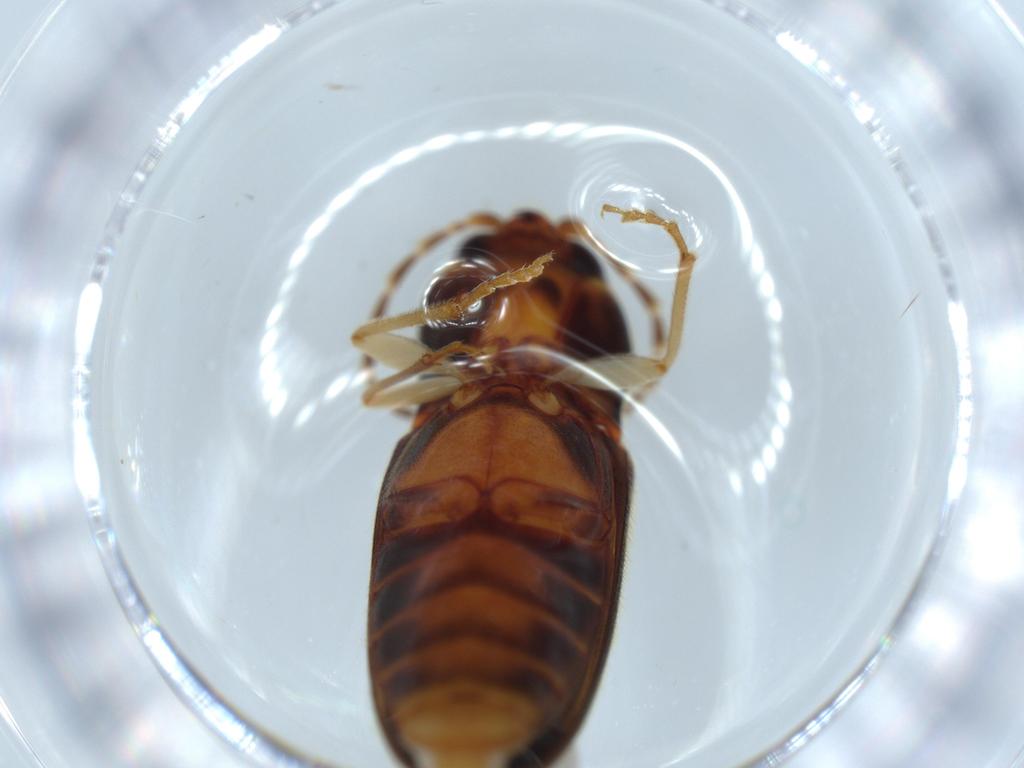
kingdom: Animalia
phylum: Arthropoda
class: Insecta
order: Coleoptera
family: Elateridae
